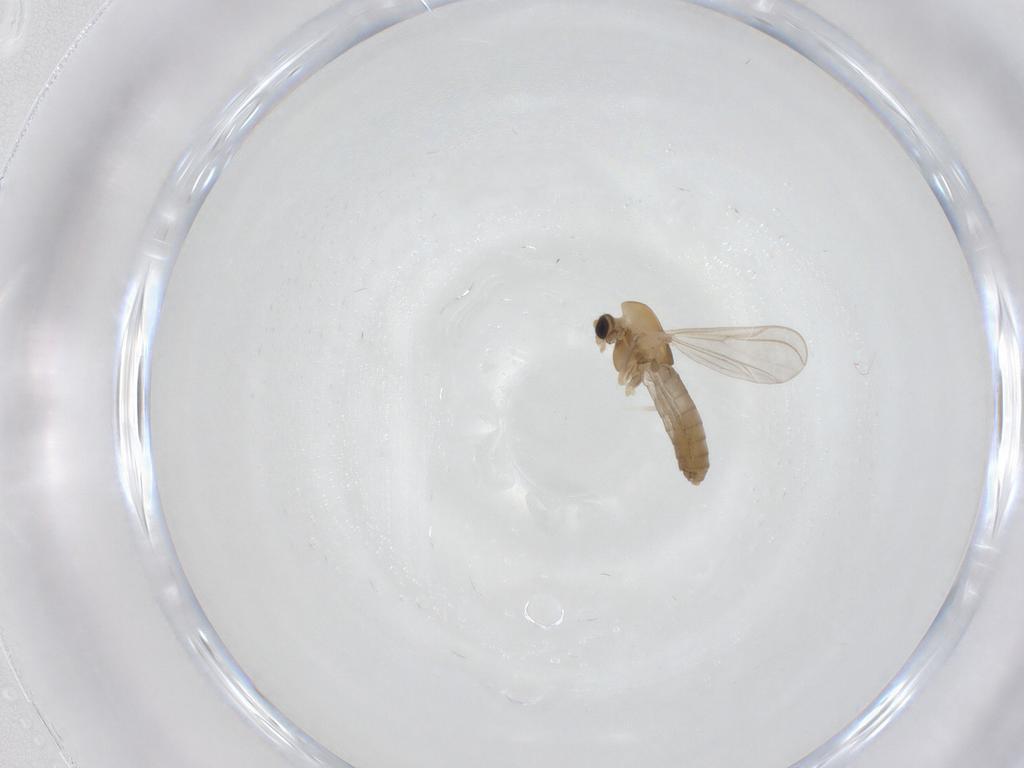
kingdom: Animalia
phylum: Arthropoda
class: Insecta
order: Diptera
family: Chironomidae
